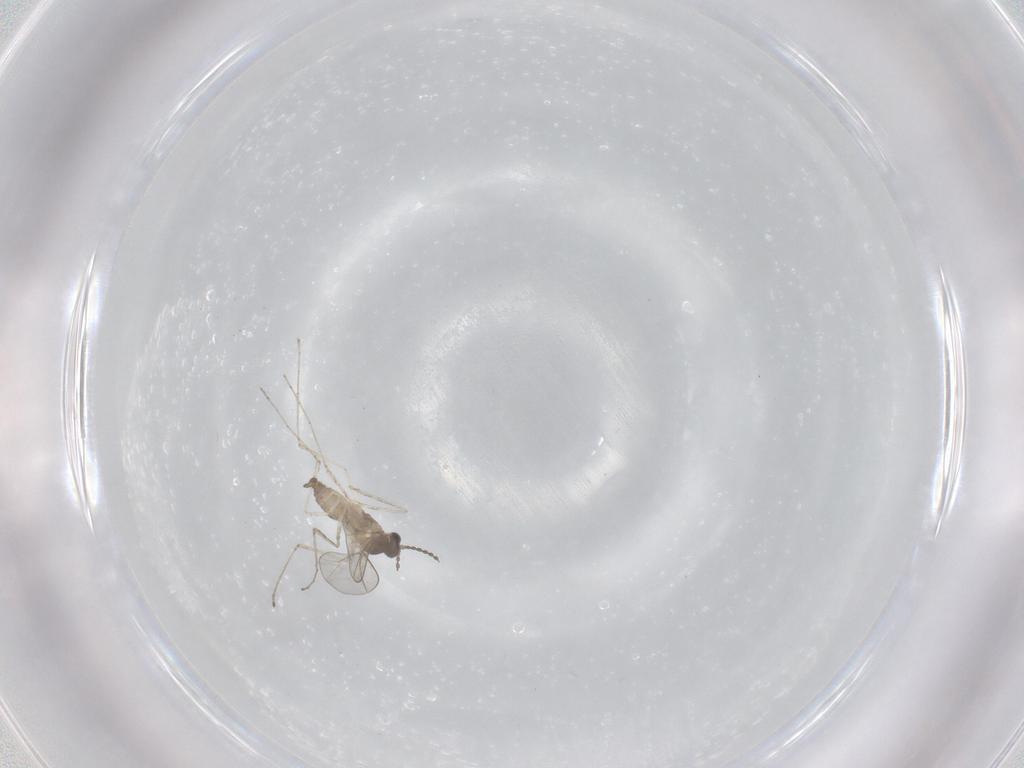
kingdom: Animalia
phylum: Arthropoda
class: Insecta
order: Diptera
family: Cecidomyiidae
